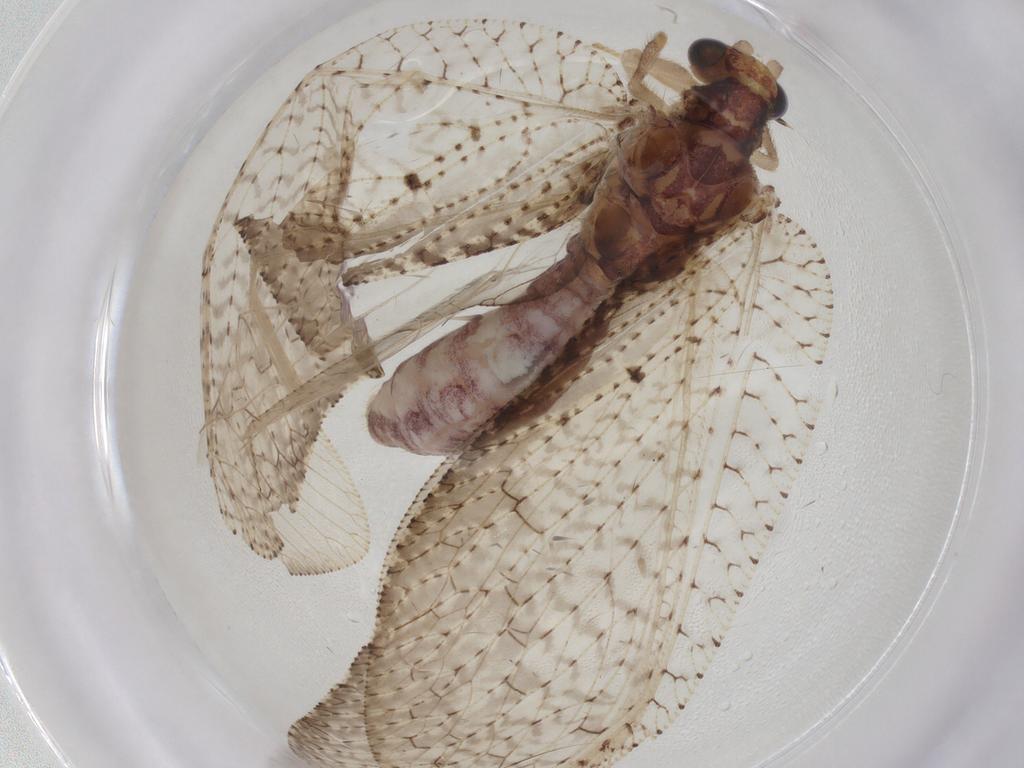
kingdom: Animalia
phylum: Arthropoda
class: Insecta
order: Neuroptera
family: Hemerobiidae
